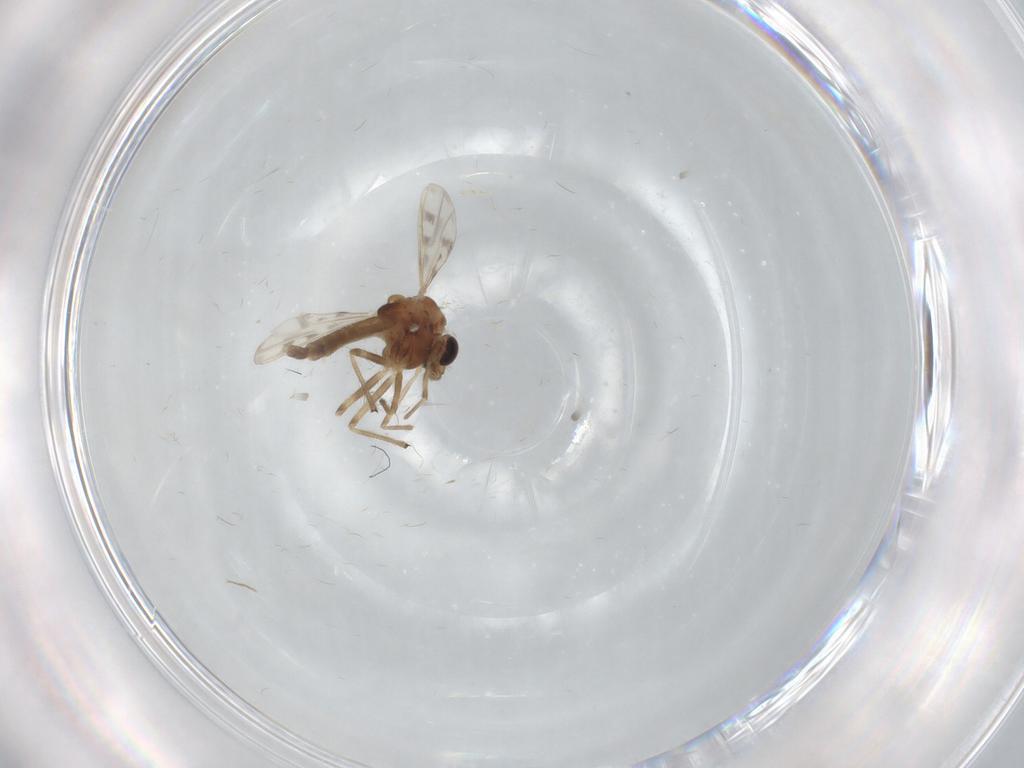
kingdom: Animalia
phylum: Arthropoda
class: Insecta
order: Diptera
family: Chironomidae
